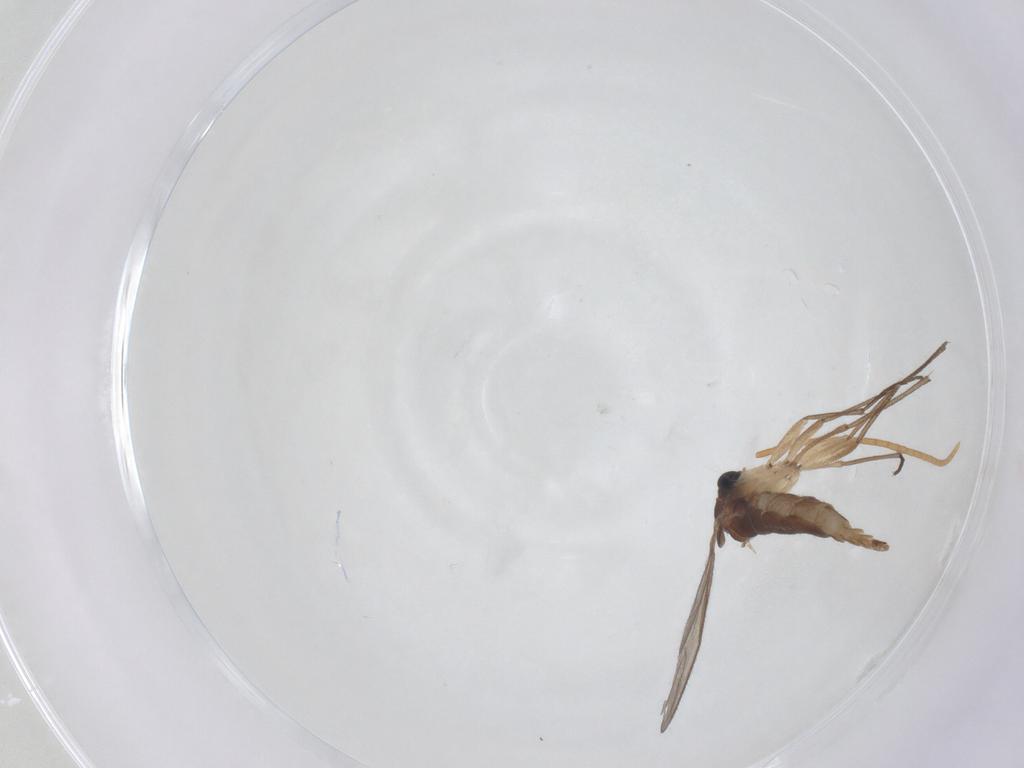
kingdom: Animalia
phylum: Arthropoda
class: Insecta
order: Diptera
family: Sciaridae
